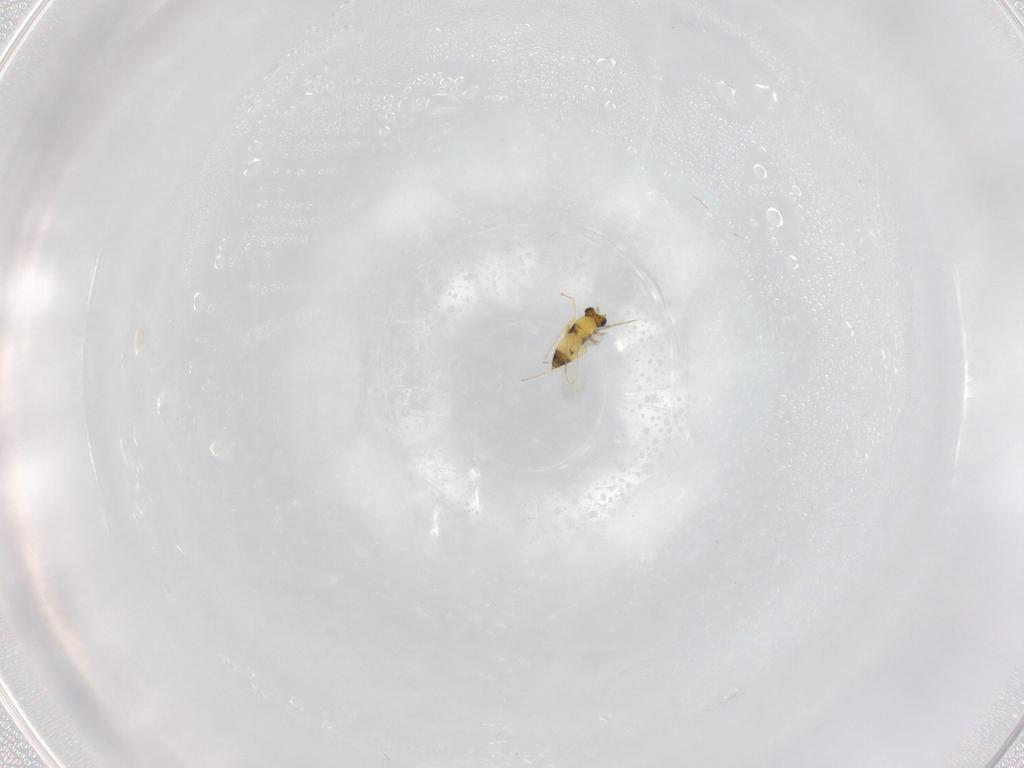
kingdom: Animalia
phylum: Arthropoda
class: Insecta
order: Hymenoptera
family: Mymaridae
